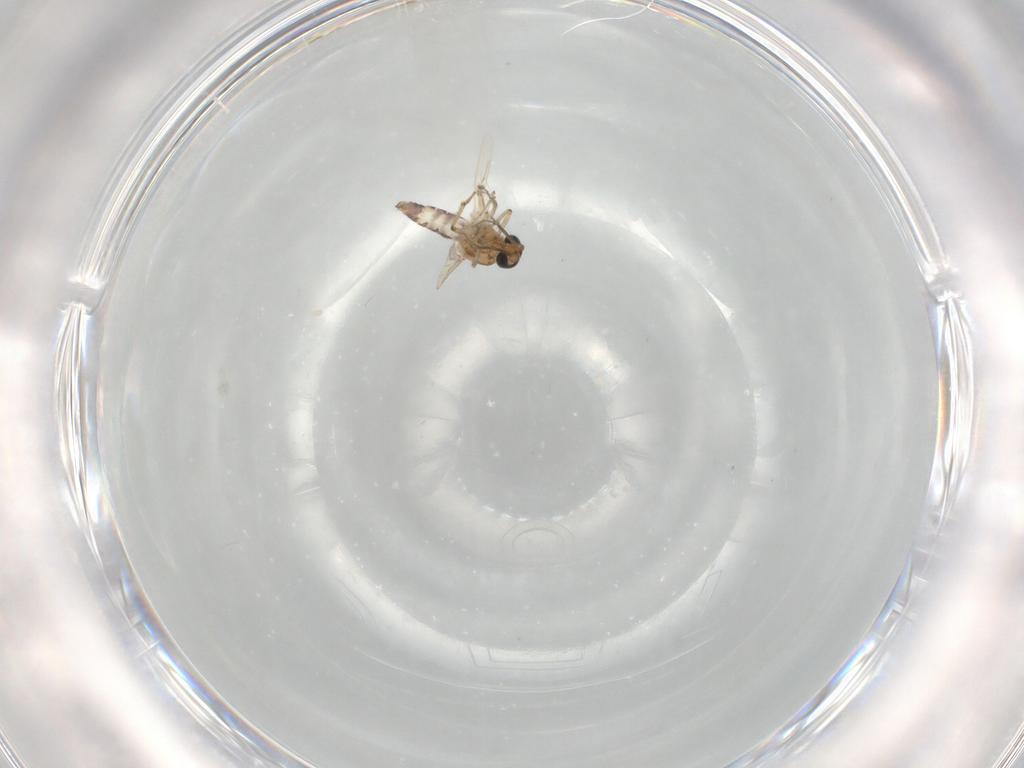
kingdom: Animalia
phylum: Arthropoda
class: Insecta
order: Diptera
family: Ceratopogonidae
